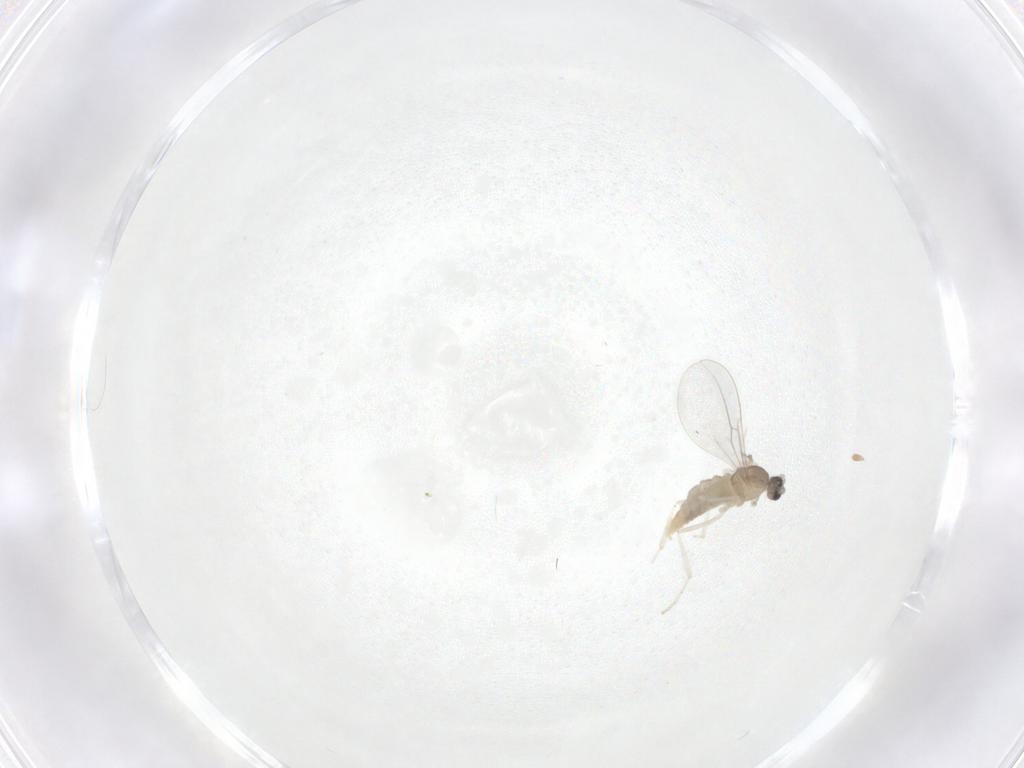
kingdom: Animalia
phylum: Arthropoda
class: Insecta
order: Diptera
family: Cecidomyiidae
